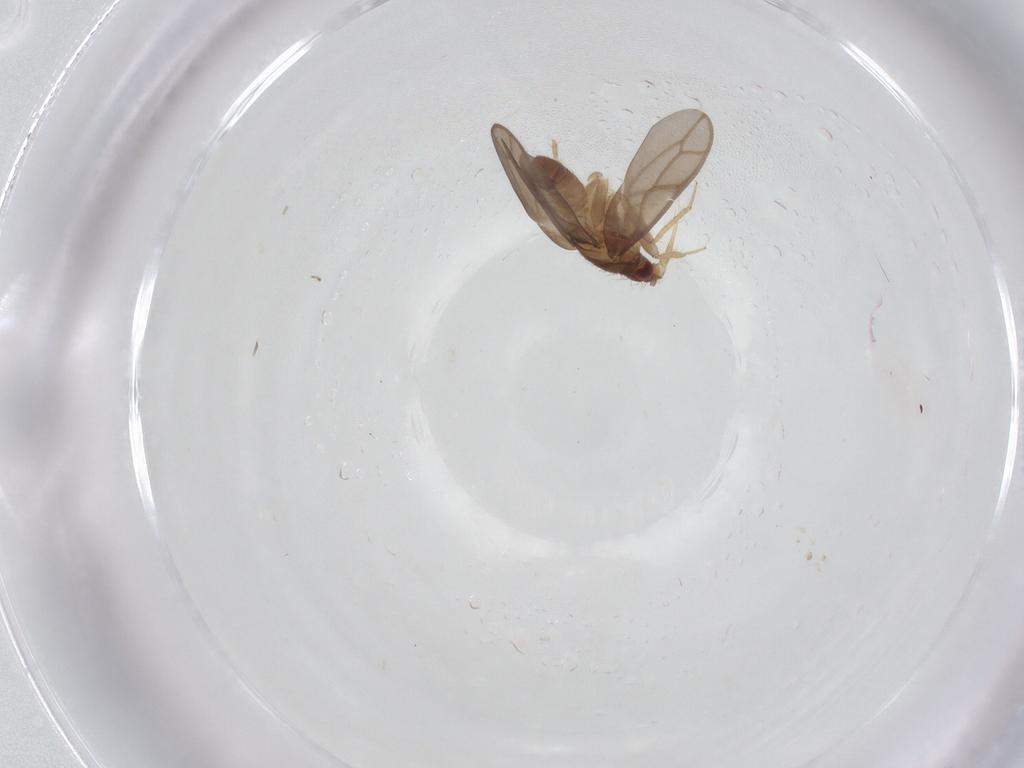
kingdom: Animalia
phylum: Arthropoda
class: Insecta
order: Hemiptera
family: Ceratocombidae
